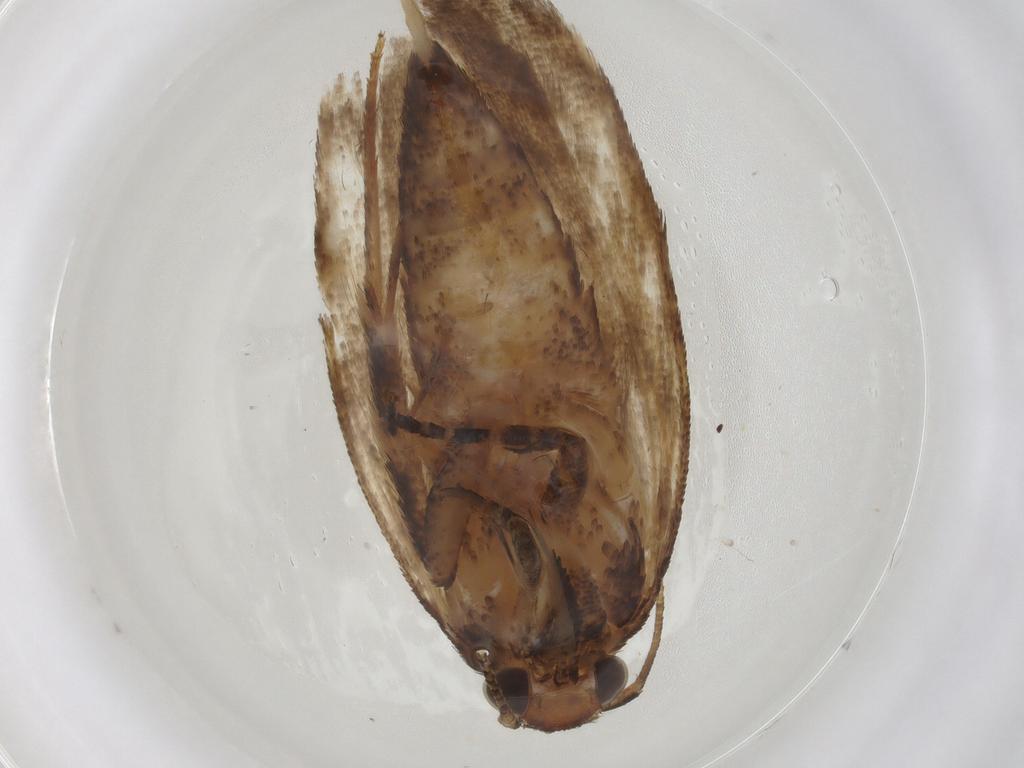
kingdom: Animalia
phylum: Arthropoda
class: Insecta
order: Lepidoptera
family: Gelechiidae
